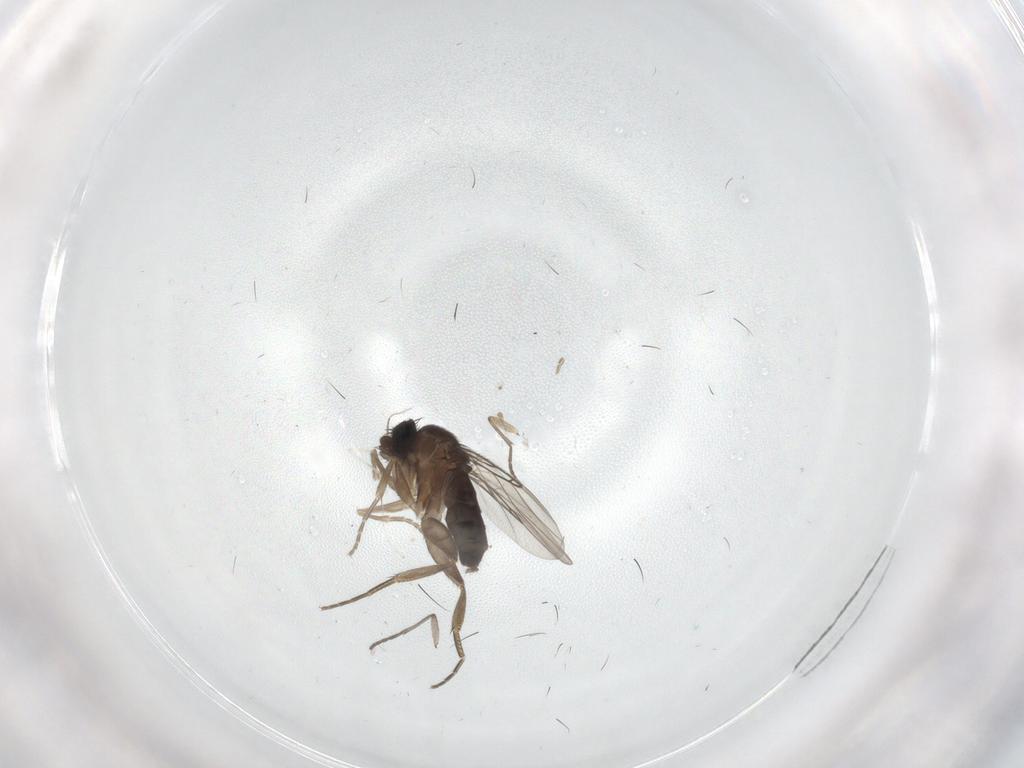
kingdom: Animalia
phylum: Arthropoda
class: Insecta
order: Diptera
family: Phoridae
